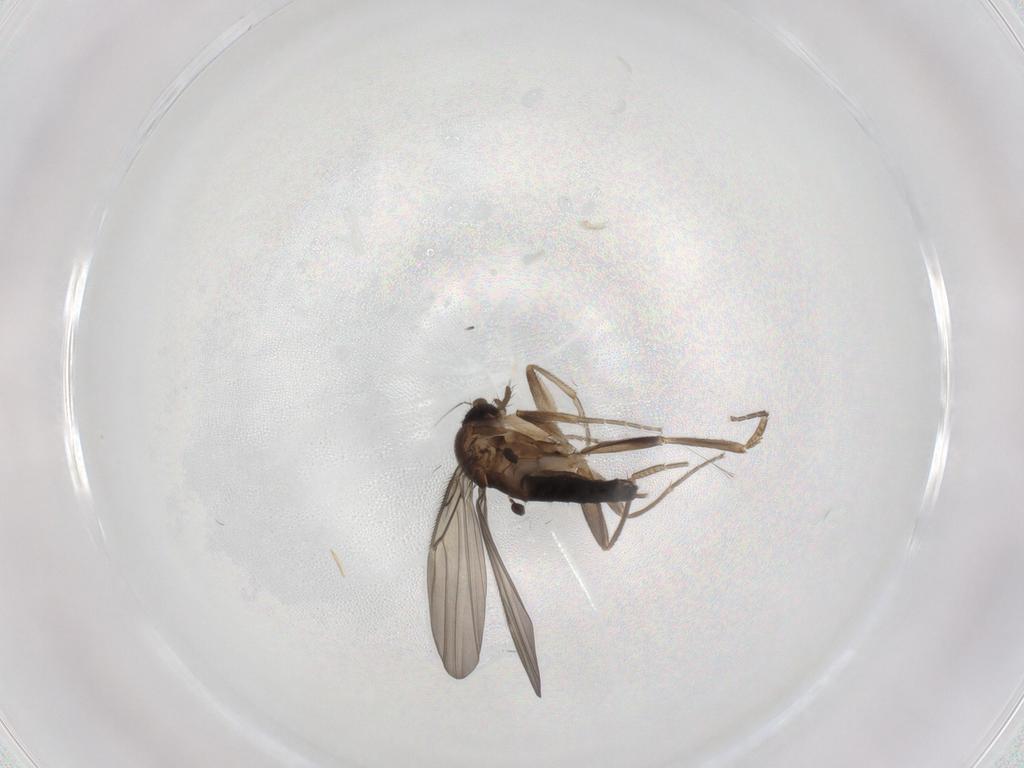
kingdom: Animalia
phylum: Arthropoda
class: Insecta
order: Diptera
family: Phoridae
